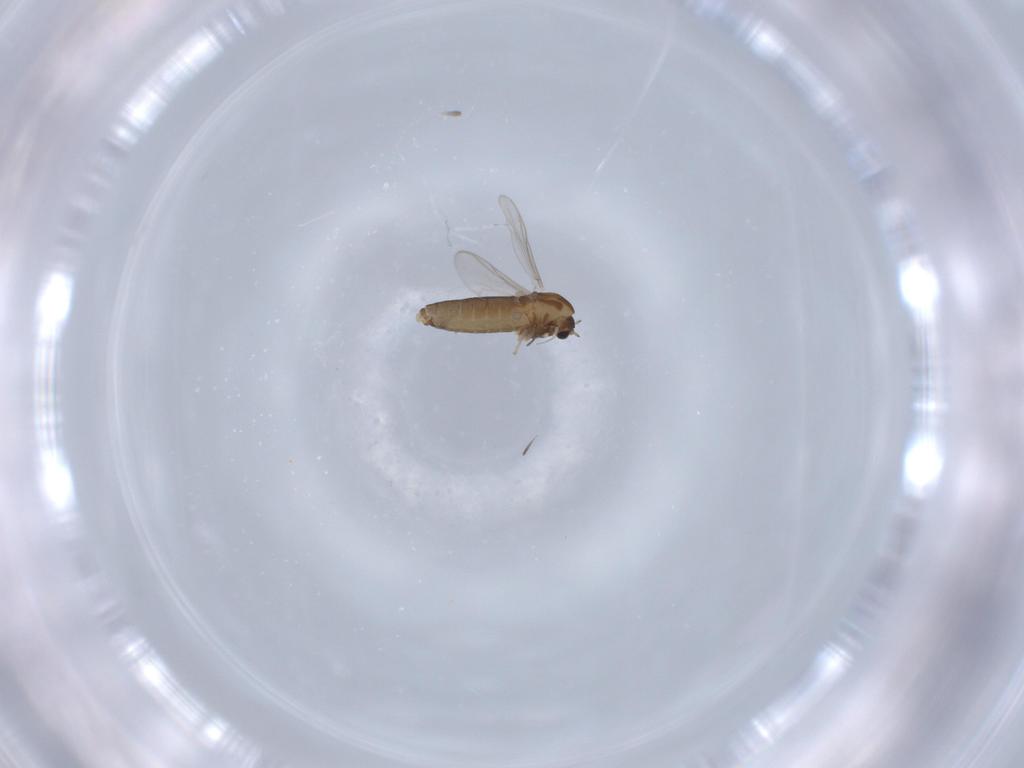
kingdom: Animalia
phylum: Arthropoda
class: Insecta
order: Diptera
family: Chironomidae
